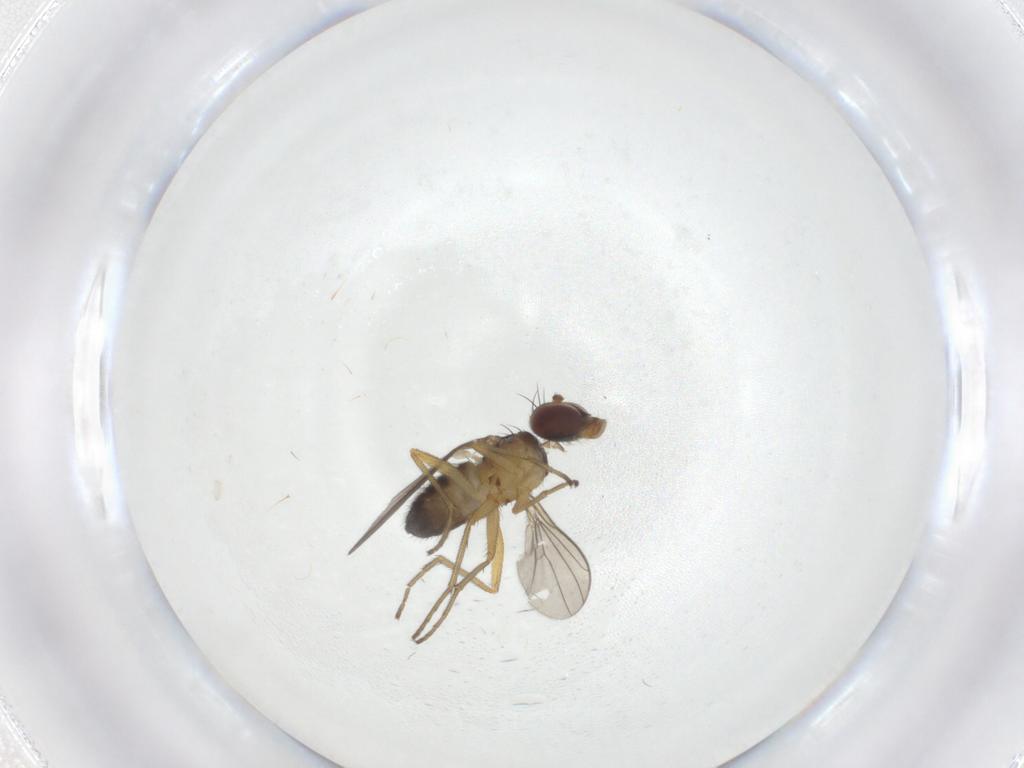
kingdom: Animalia
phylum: Arthropoda
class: Insecta
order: Diptera
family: Dolichopodidae
